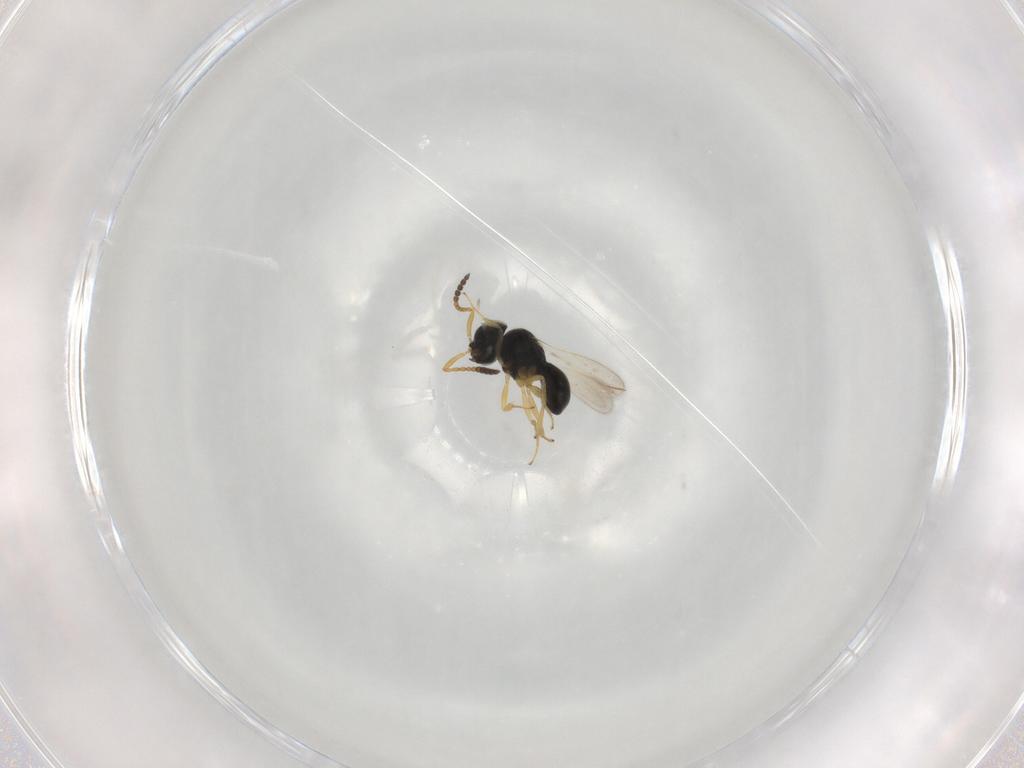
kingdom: Animalia
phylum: Arthropoda
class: Insecta
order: Hymenoptera
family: Scelionidae
